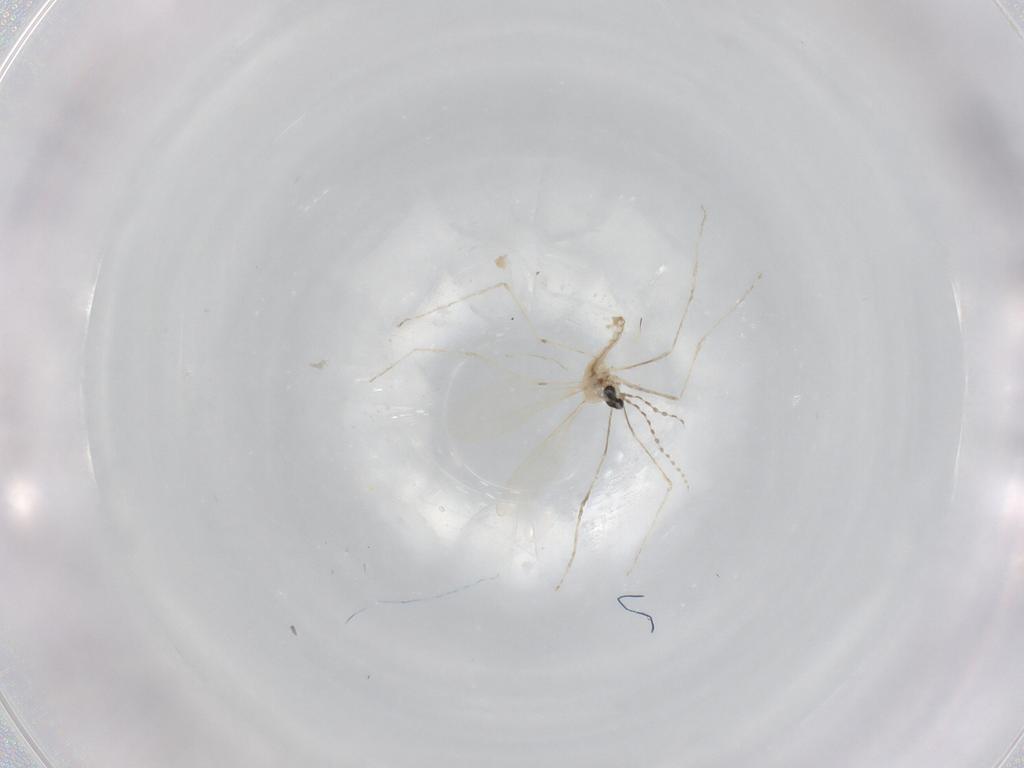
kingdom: Animalia
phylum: Arthropoda
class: Insecta
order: Diptera
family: Cecidomyiidae
